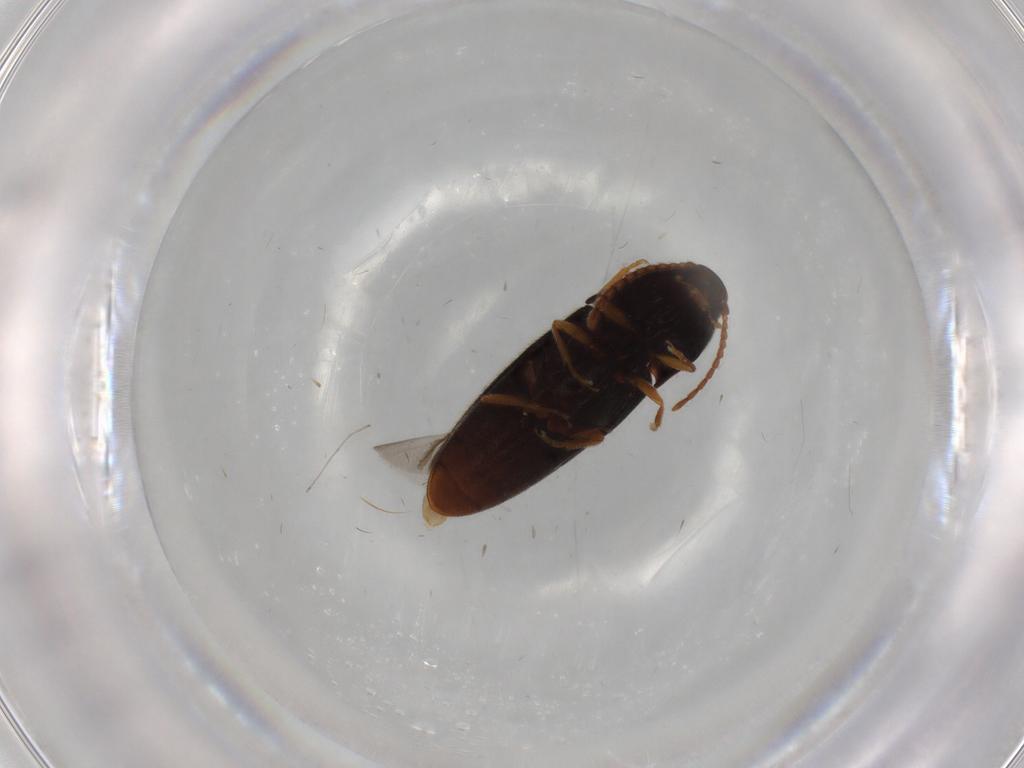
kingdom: Animalia
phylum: Arthropoda
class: Insecta
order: Coleoptera
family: Elateridae
